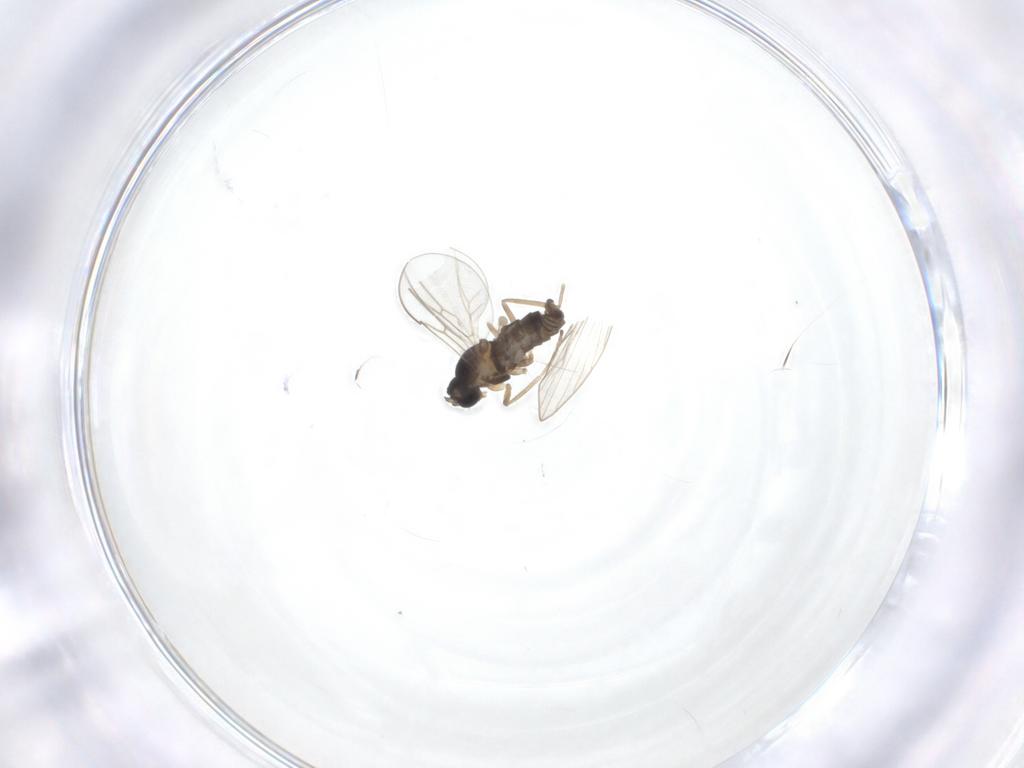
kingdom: Animalia
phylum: Arthropoda
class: Insecta
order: Diptera
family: Cecidomyiidae
